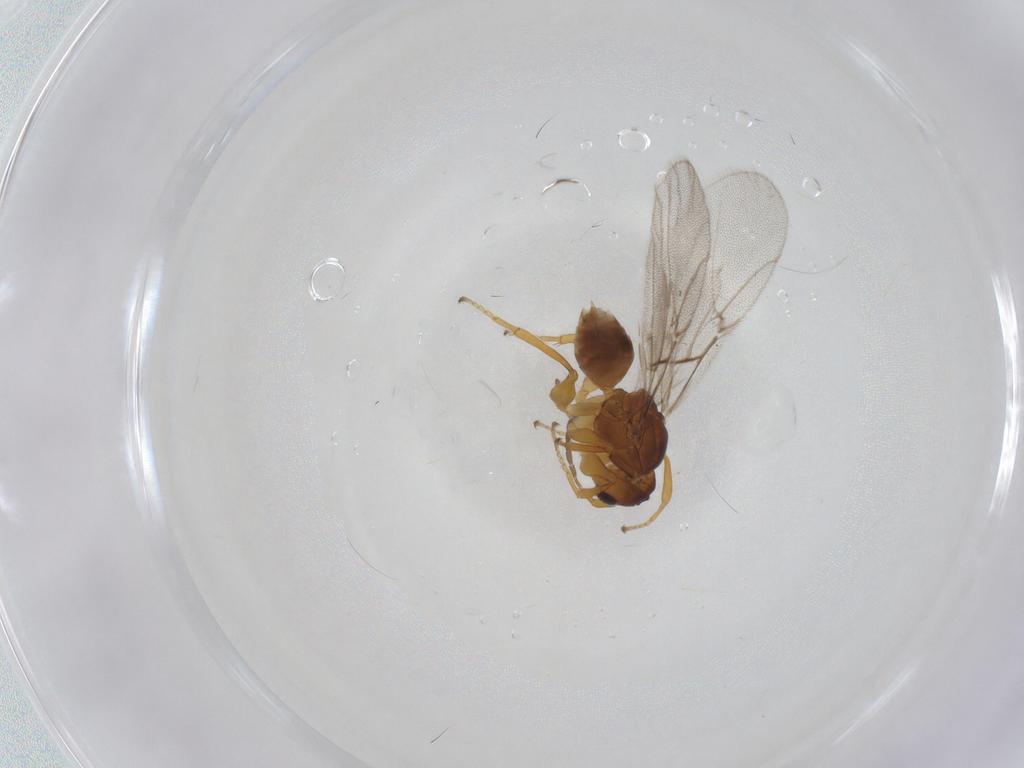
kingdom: Animalia
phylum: Arthropoda
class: Insecta
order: Hymenoptera
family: Cynipidae
